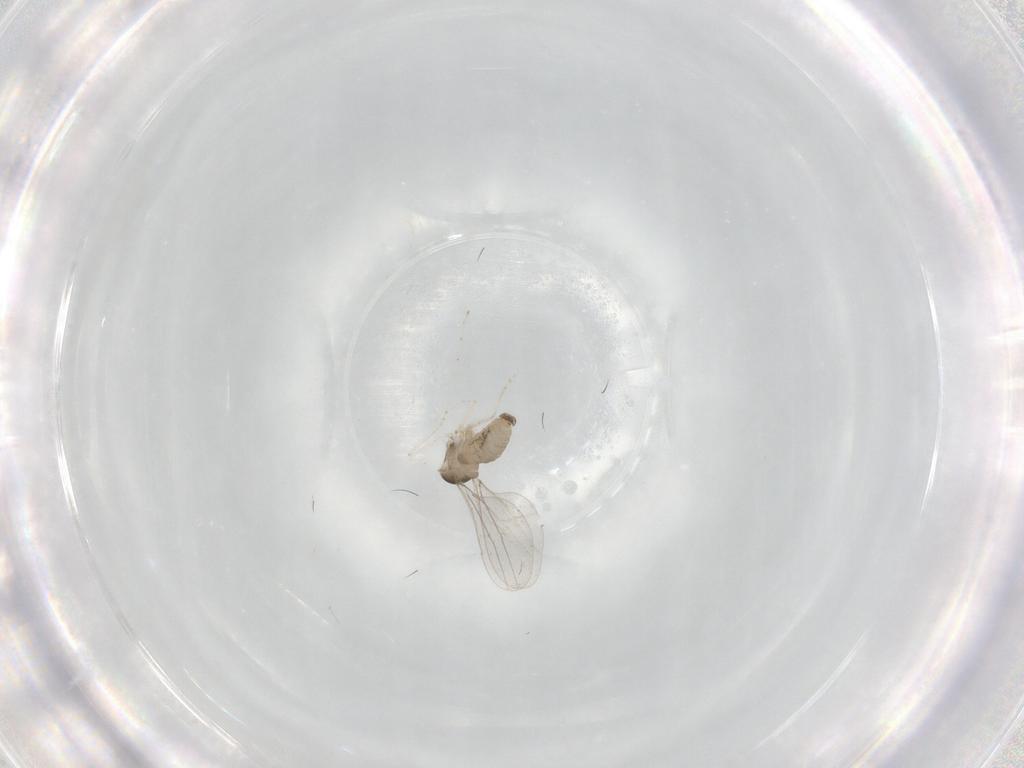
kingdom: Animalia
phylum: Arthropoda
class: Insecta
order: Diptera
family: Cecidomyiidae
